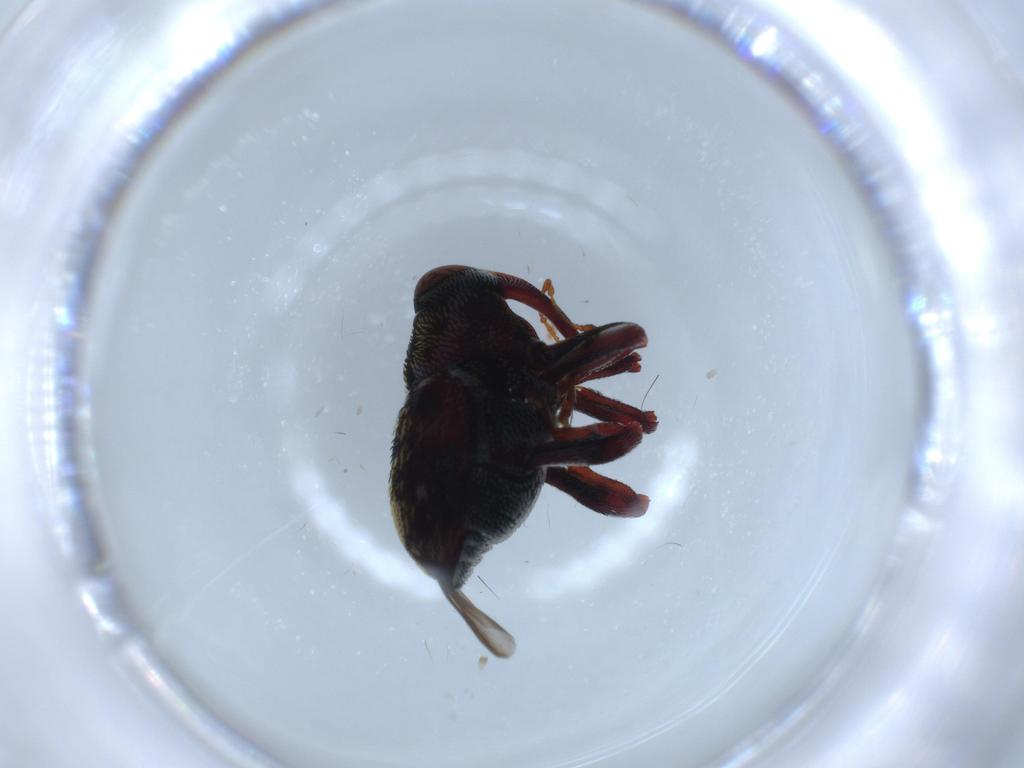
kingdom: Animalia
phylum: Arthropoda
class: Insecta
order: Coleoptera
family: Curculionidae
